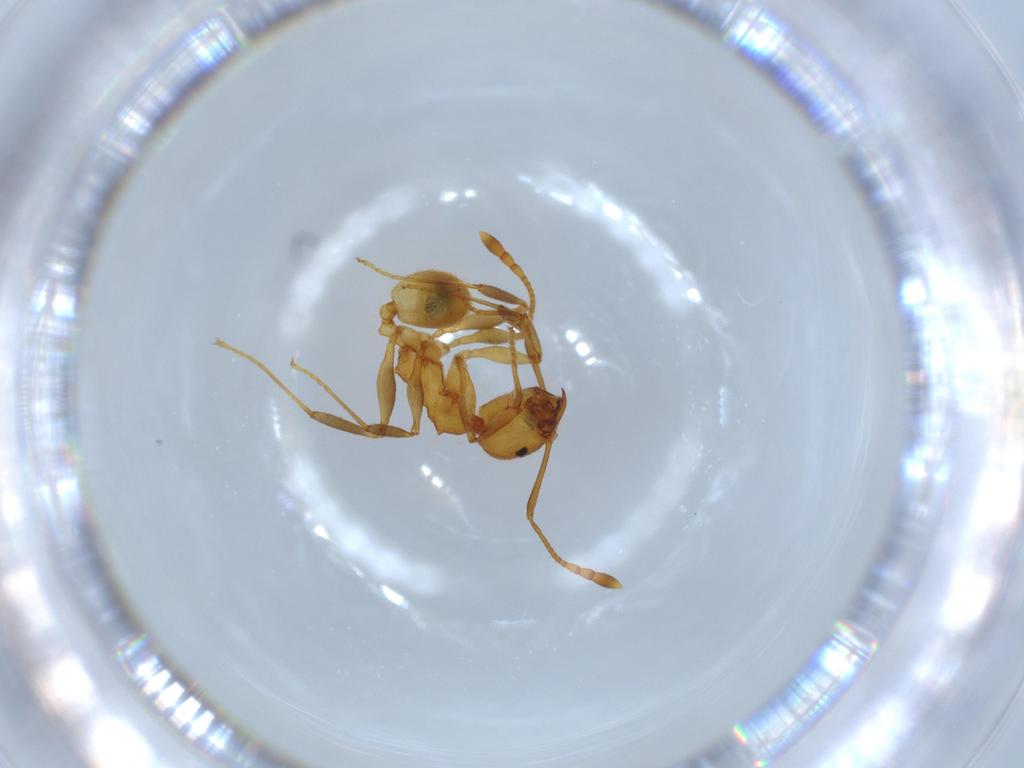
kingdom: Animalia
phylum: Arthropoda
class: Insecta
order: Hymenoptera
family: Formicidae
